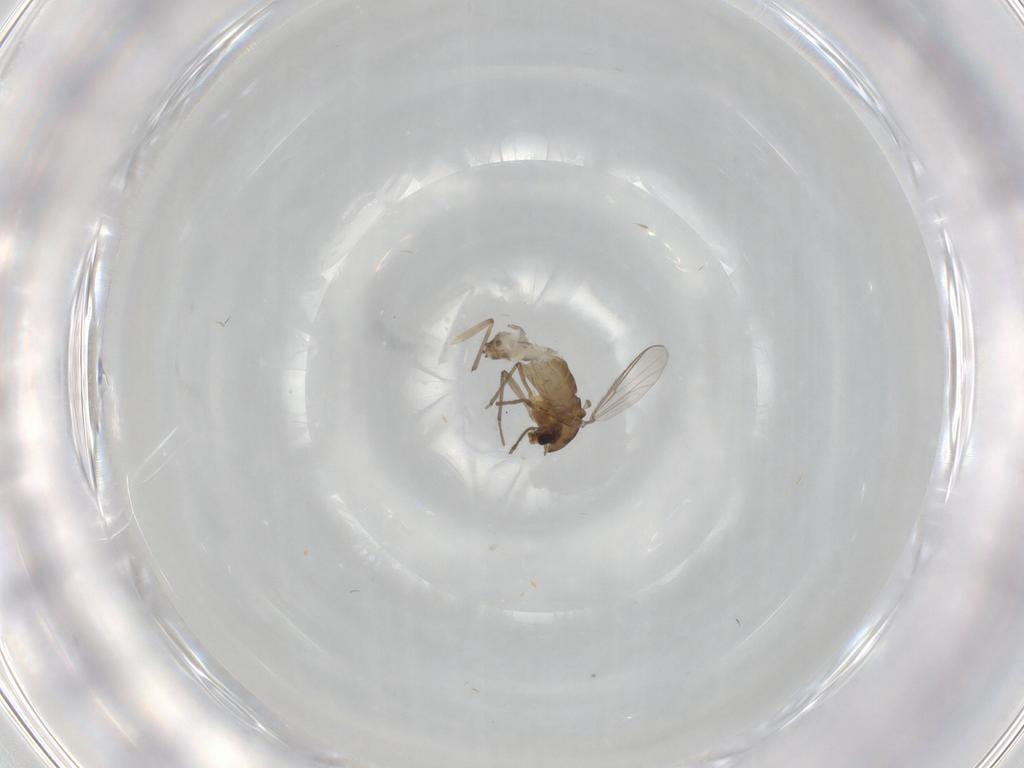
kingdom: Animalia
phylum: Arthropoda
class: Insecta
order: Diptera
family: Chironomidae
